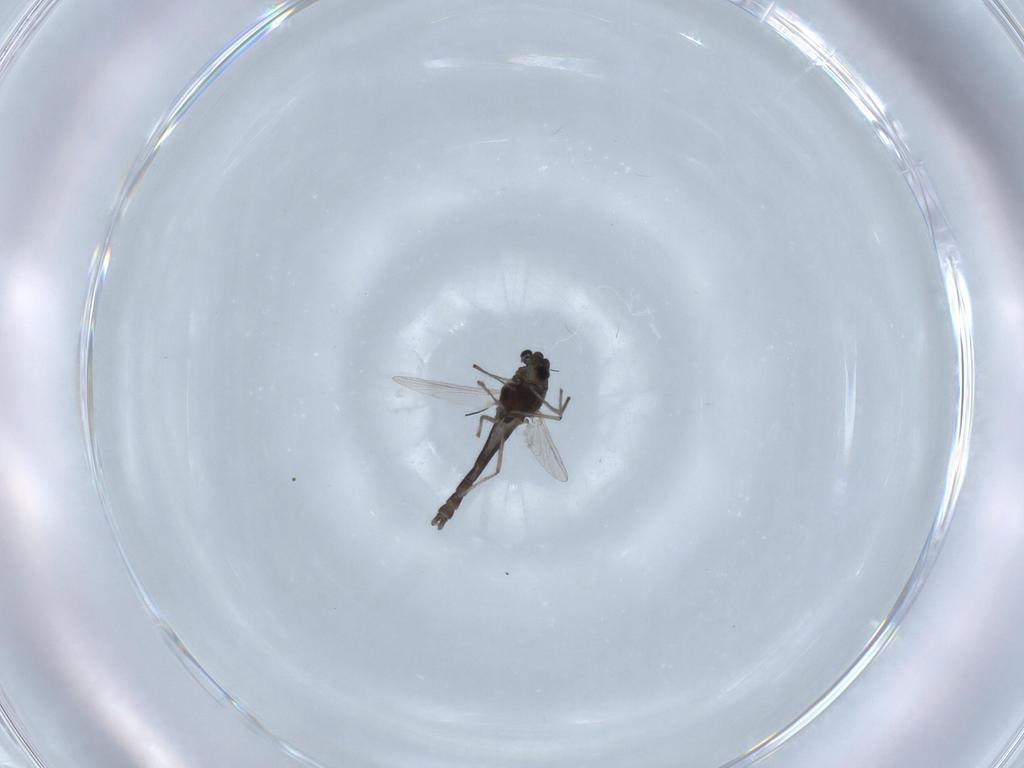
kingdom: Animalia
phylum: Arthropoda
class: Insecta
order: Diptera
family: Chironomidae
